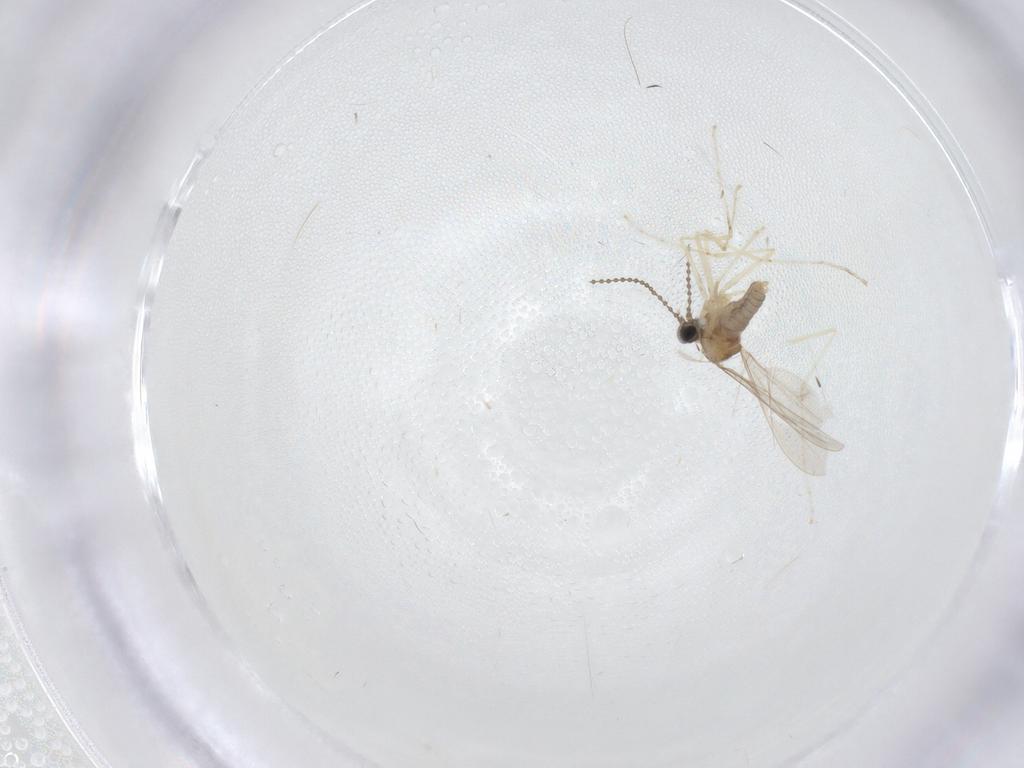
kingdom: Animalia
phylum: Arthropoda
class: Insecta
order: Diptera
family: Cecidomyiidae
